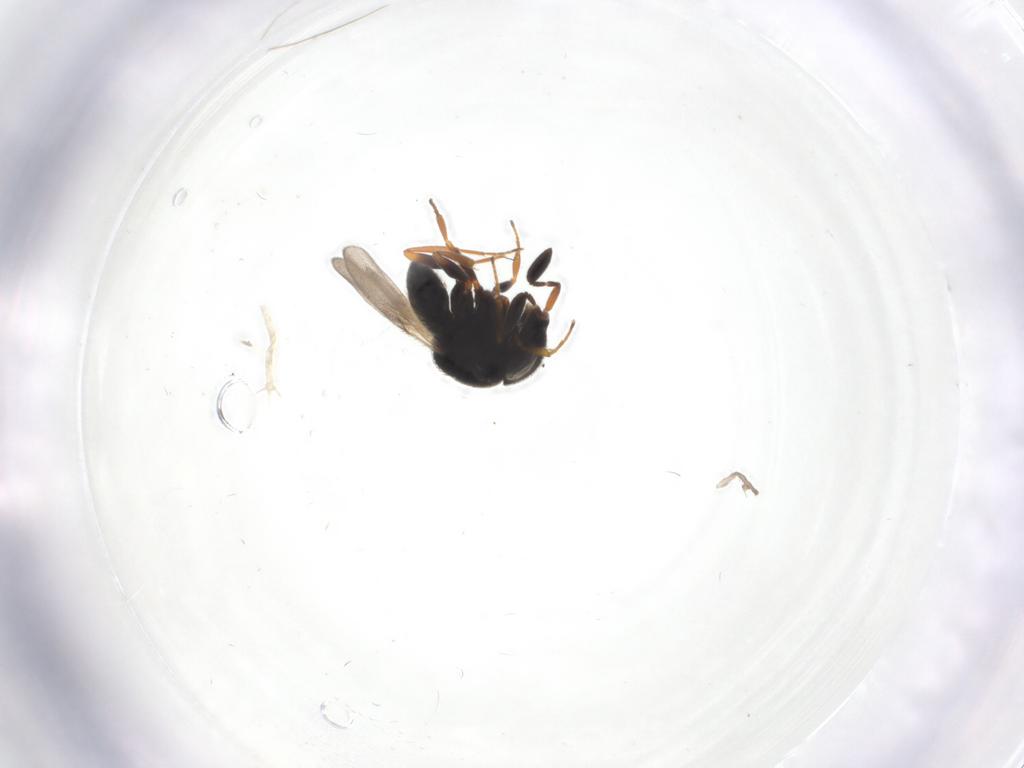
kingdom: Animalia
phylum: Arthropoda
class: Insecta
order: Hymenoptera
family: Scelionidae
